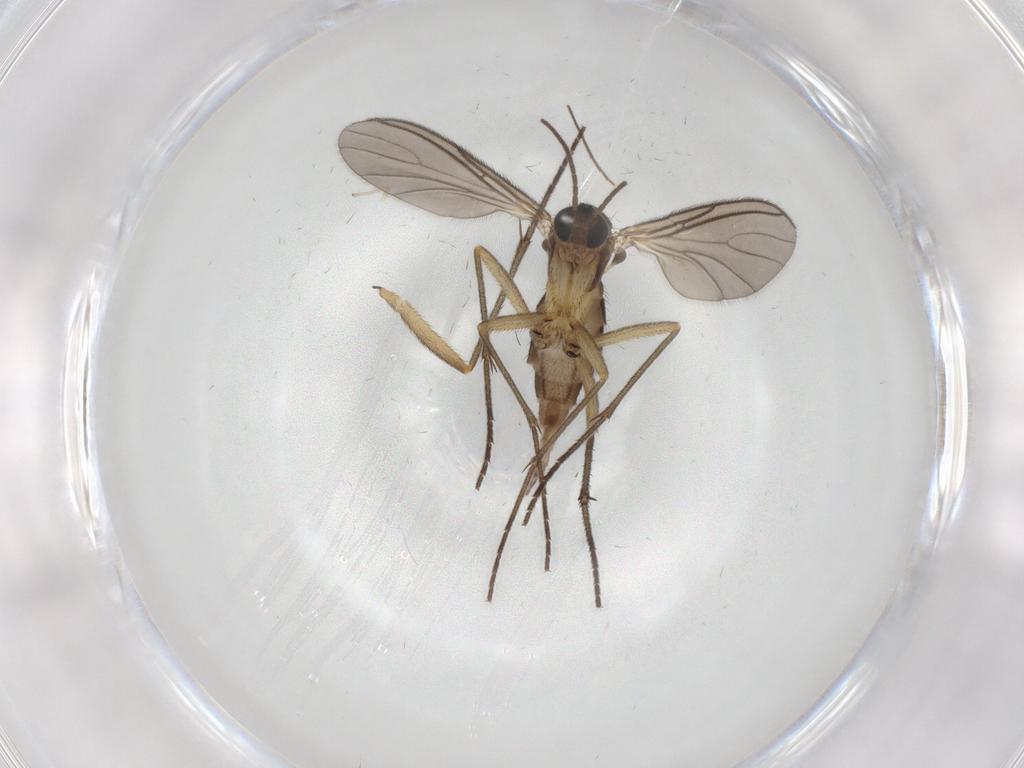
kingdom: Animalia
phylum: Arthropoda
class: Insecta
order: Diptera
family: Sciaridae
